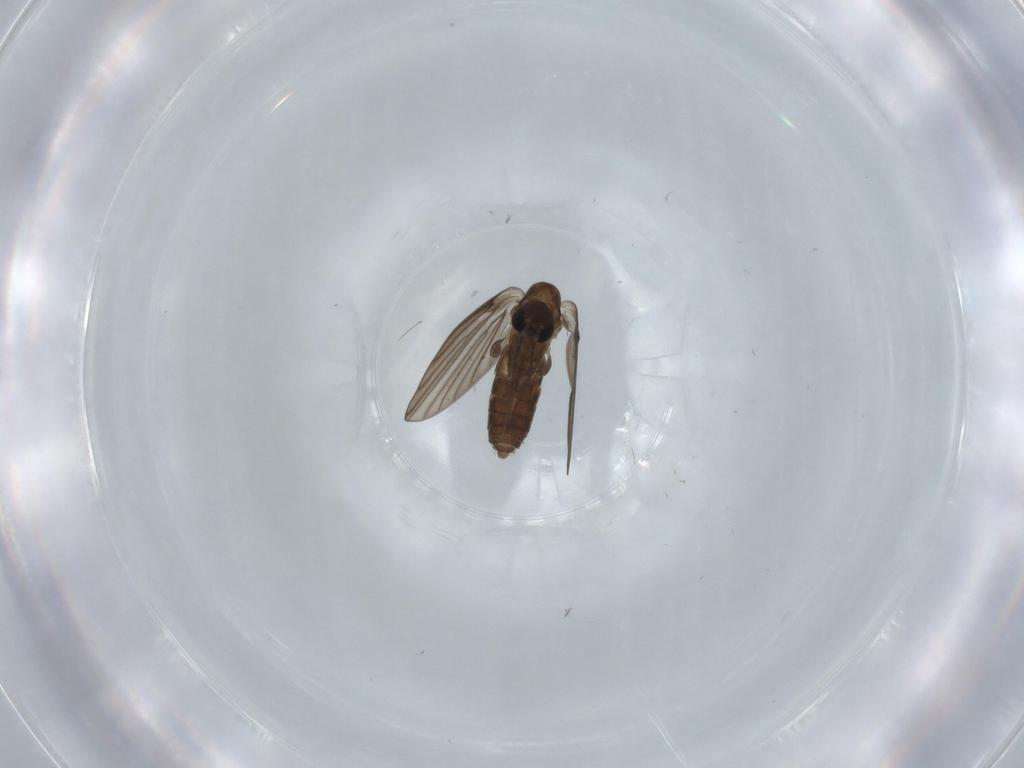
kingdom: Animalia
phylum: Arthropoda
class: Insecta
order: Diptera
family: Psychodidae
